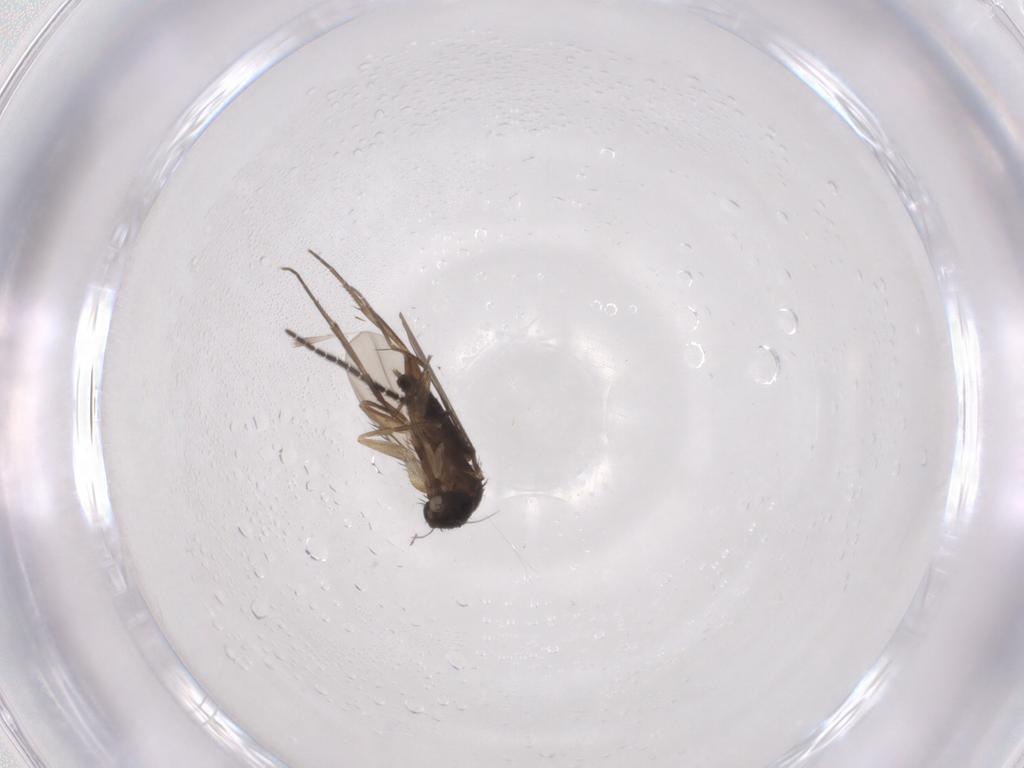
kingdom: Animalia
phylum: Arthropoda
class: Insecta
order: Diptera
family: Phoridae
